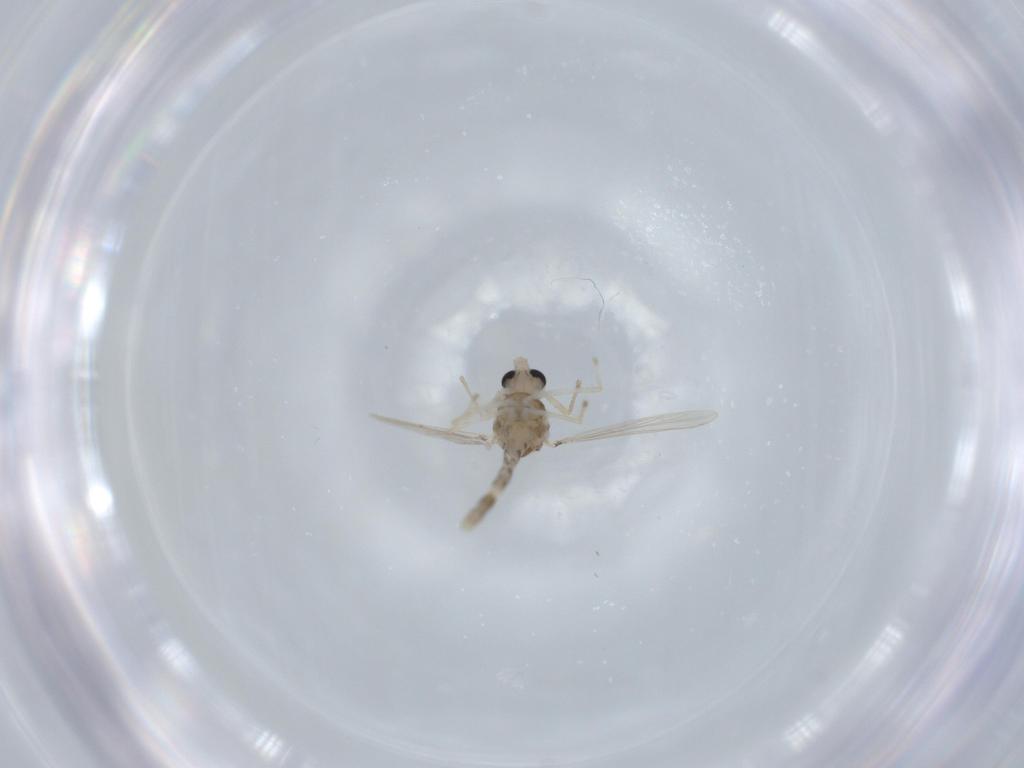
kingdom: Animalia
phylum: Arthropoda
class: Insecta
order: Diptera
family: Chironomidae
